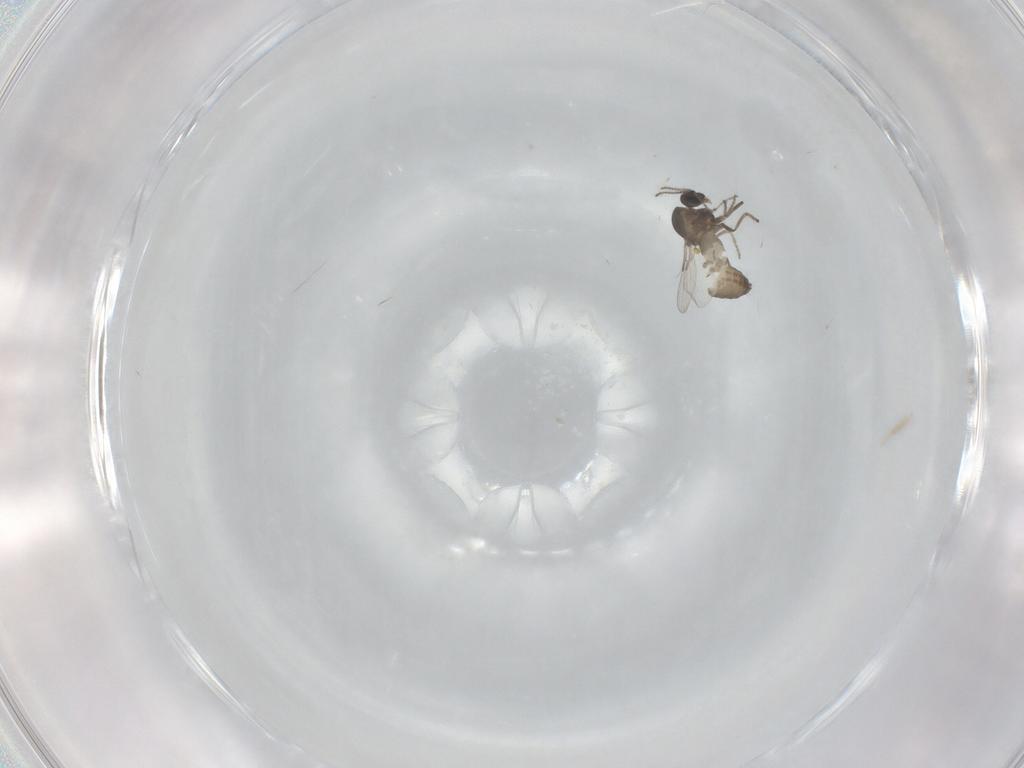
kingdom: Animalia
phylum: Arthropoda
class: Insecta
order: Diptera
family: Ceratopogonidae
